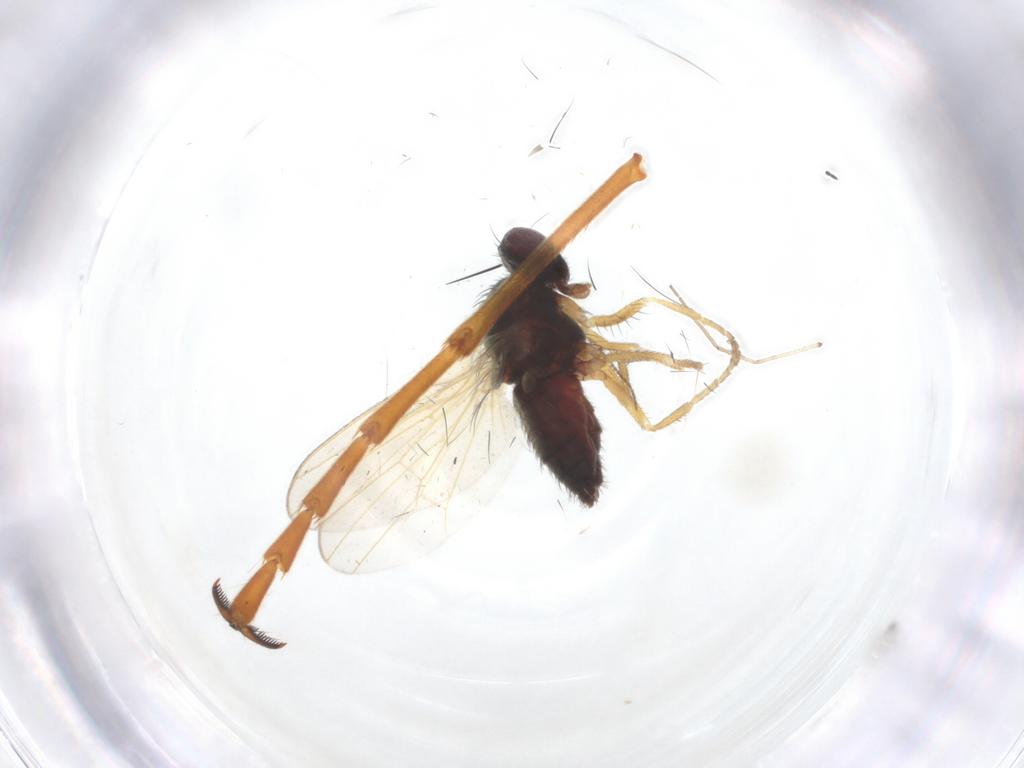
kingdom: Animalia
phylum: Arthropoda
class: Insecta
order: Diptera
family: Heleomyzidae
